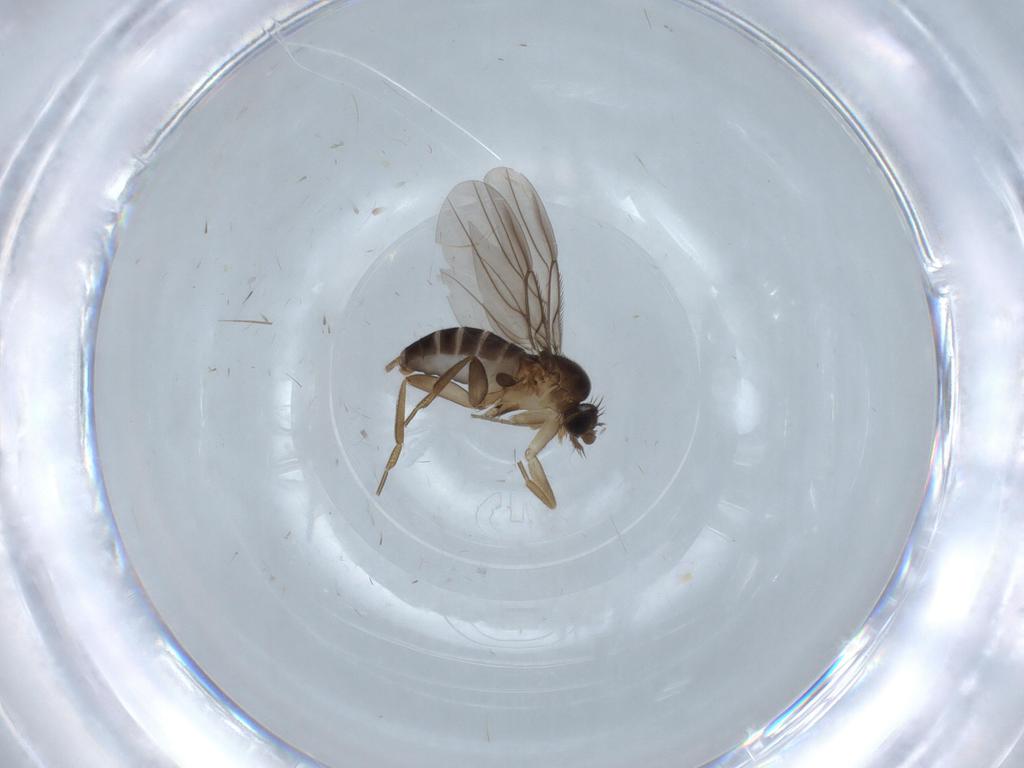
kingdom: Animalia
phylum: Arthropoda
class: Insecta
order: Diptera
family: Phoridae
